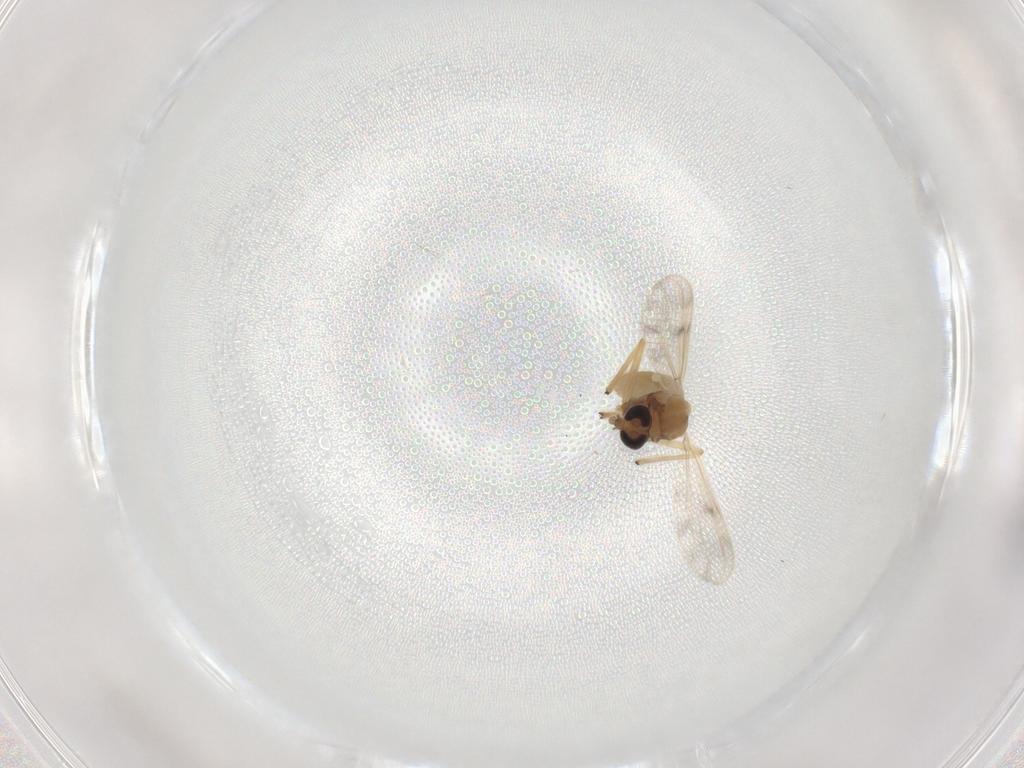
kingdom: Animalia
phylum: Arthropoda
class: Insecta
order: Diptera
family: Chironomidae
